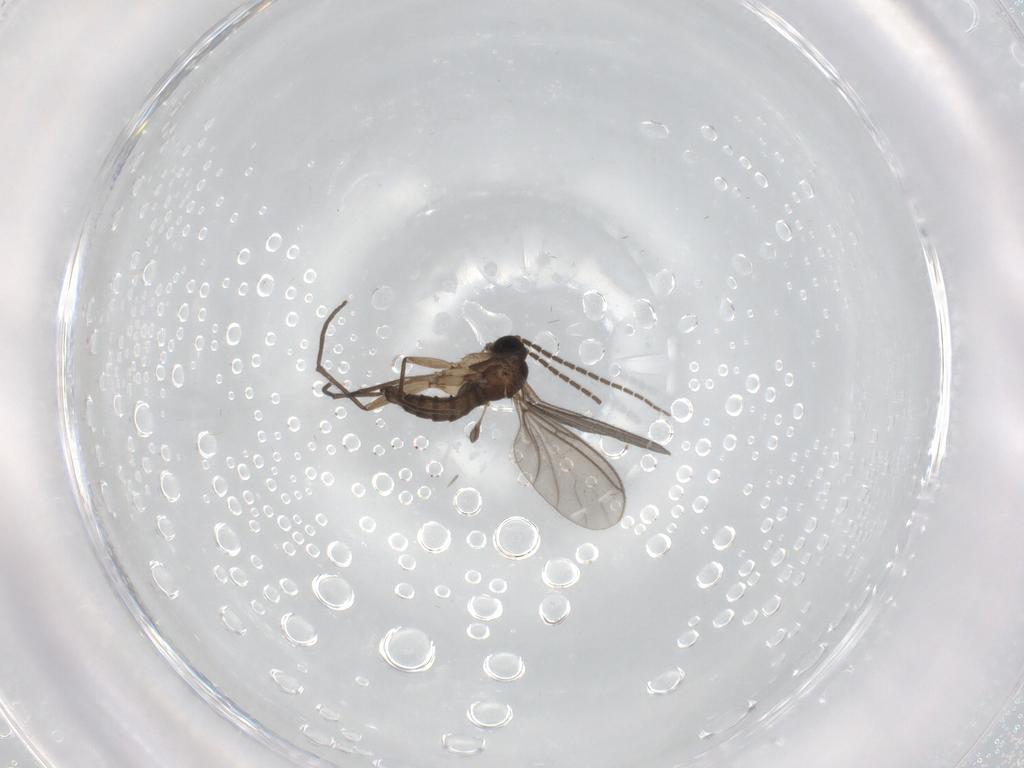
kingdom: Animalia
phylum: Arthropoda
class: Insecta
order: Diptera
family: Sciaridae
